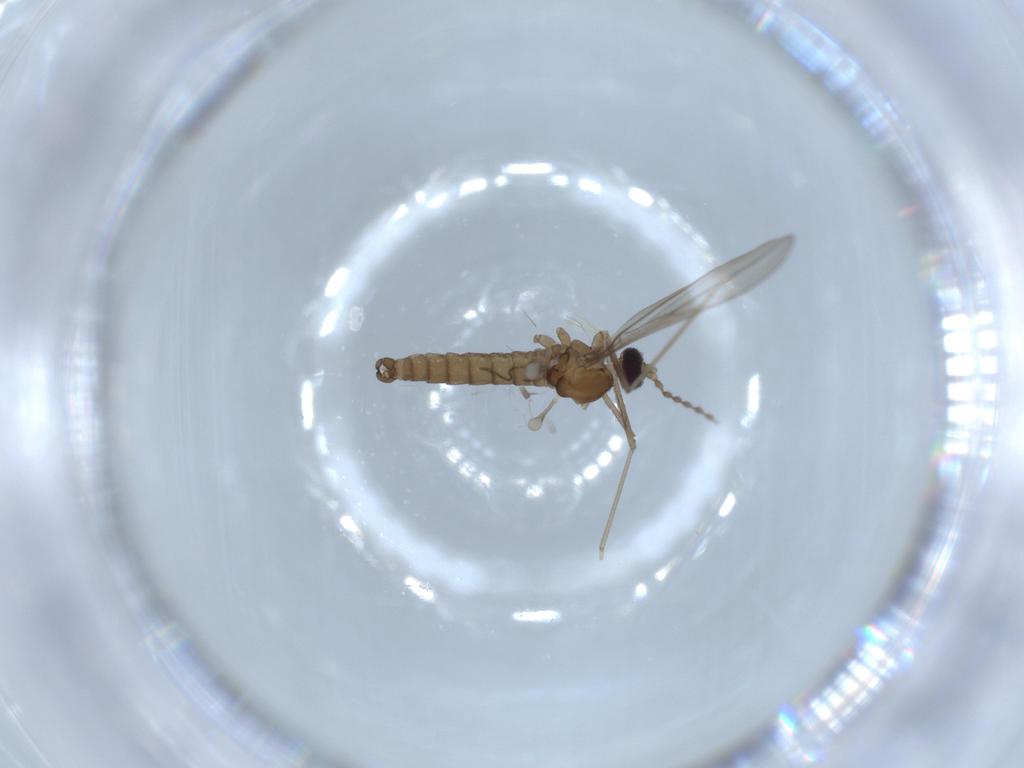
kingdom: Animalia
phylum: Arthropoda
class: Insecta
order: Diptera
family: Cecidomyiidae
